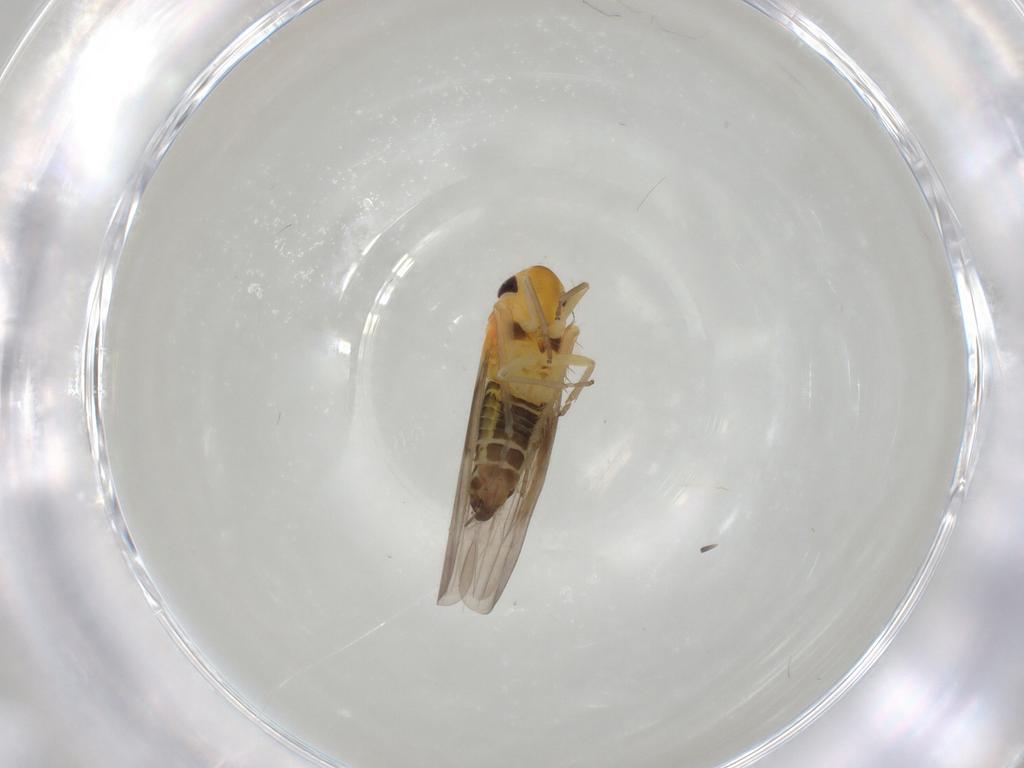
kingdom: Animalia
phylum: Arthropoda
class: Insecta
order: Hemiptera
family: Cicadellidae
